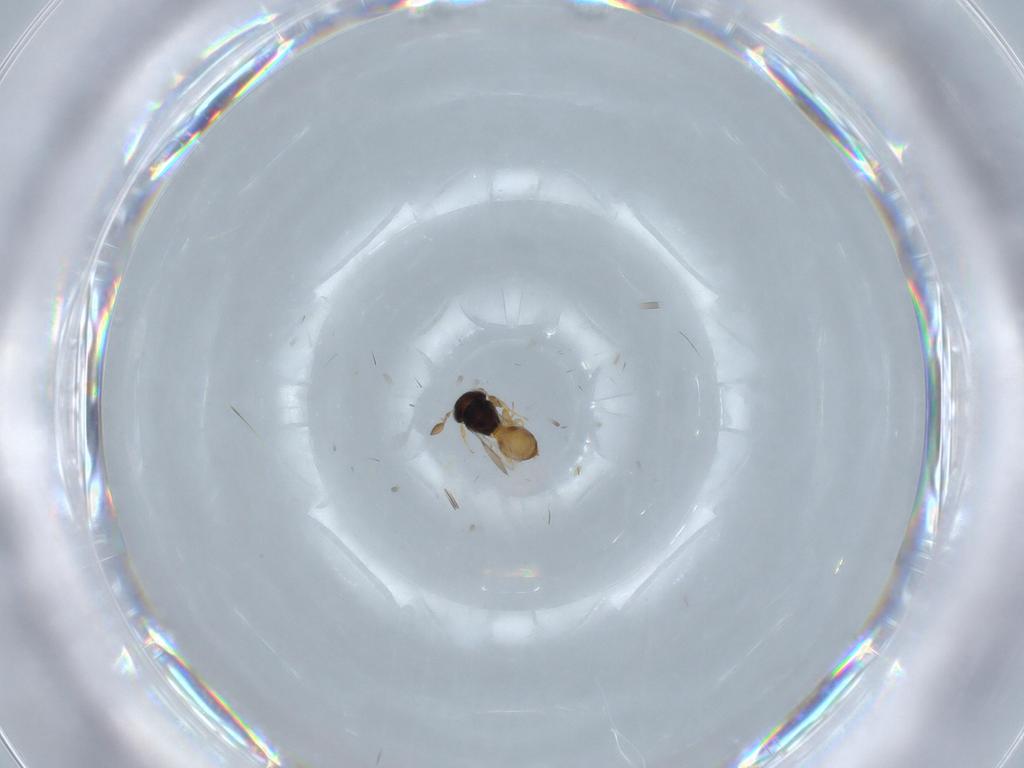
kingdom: Animalia
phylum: Arthropoda
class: Insecta
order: Hymenoptera
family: Scelionidae
